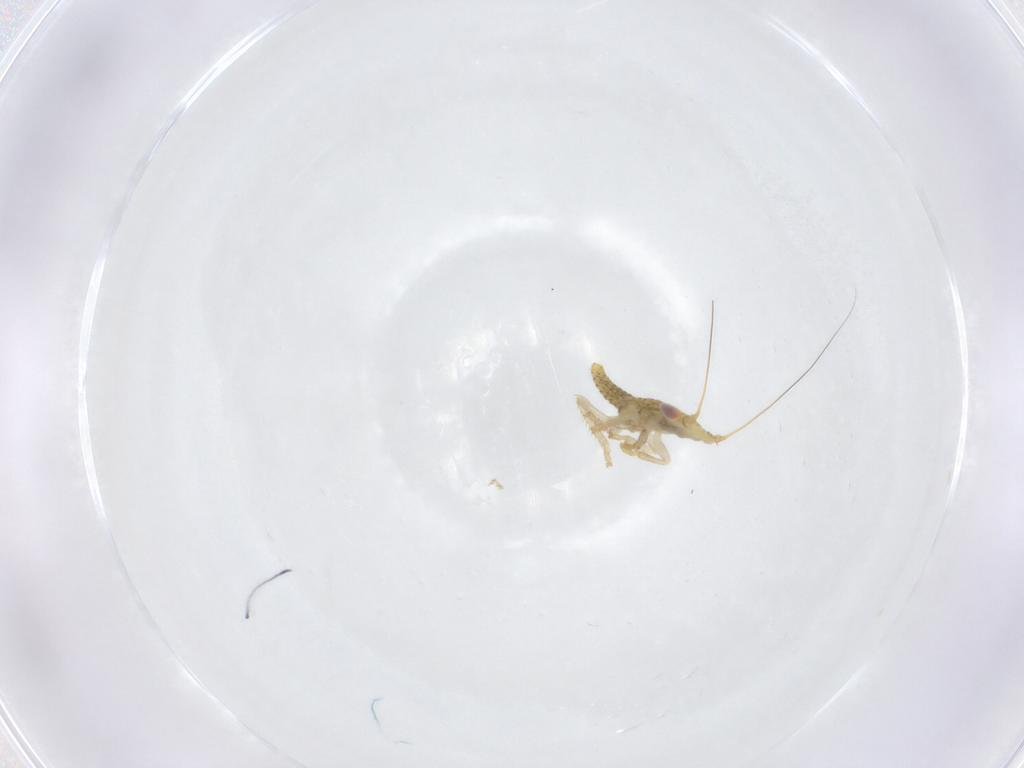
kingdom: Animalia
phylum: Arthropoda
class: Insecta
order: Hemiptera
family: Cicadellidae
